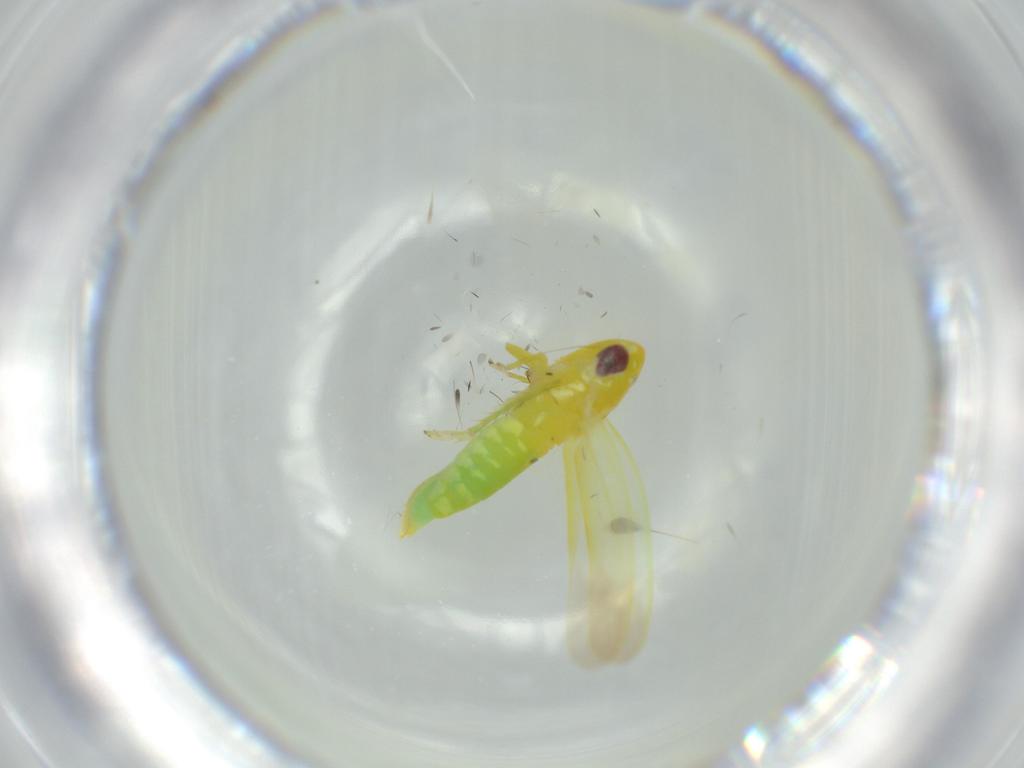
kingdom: Animalia
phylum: Arthropoda
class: Insecta
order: Hemiptera
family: Cicadellidae
